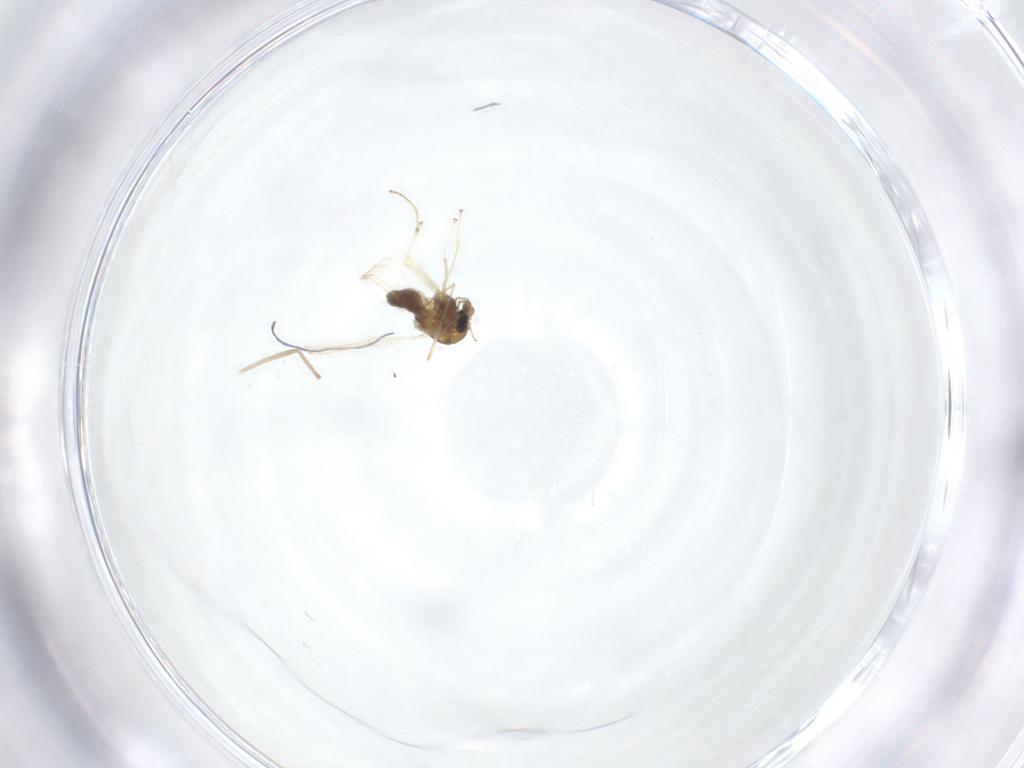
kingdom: Animalia
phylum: Arthropoda
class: Insecta
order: Diptera
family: Chironomidae
